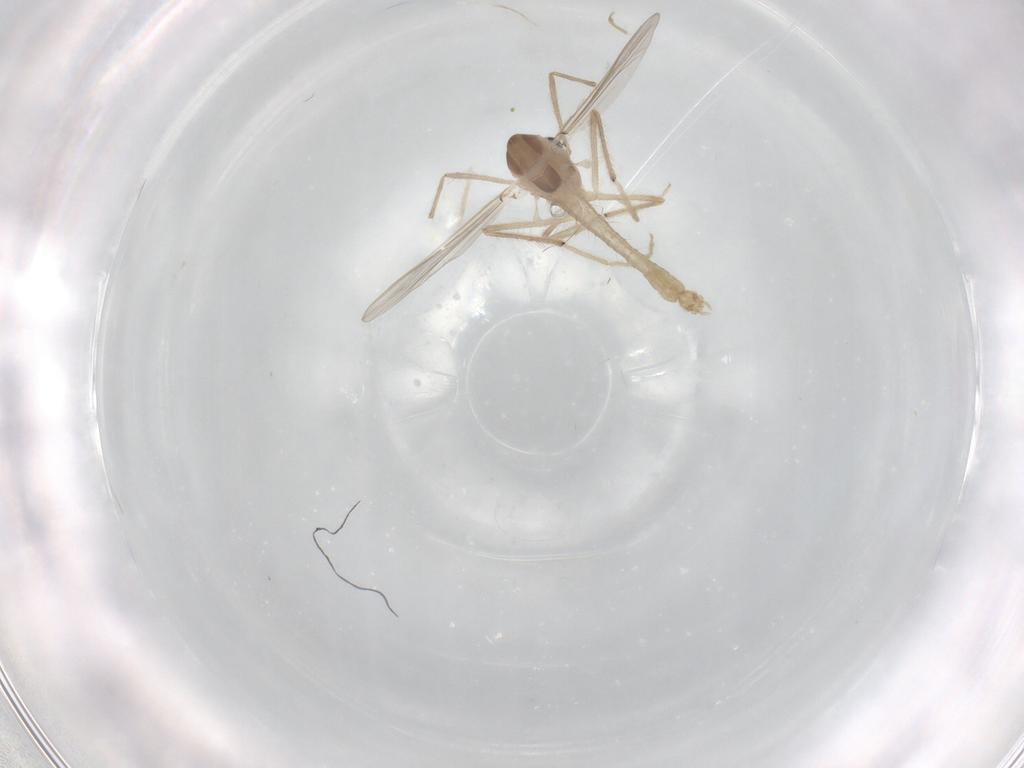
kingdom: Animalia
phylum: Arthropoda
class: Insecta
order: Diptera
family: Chironomidae
